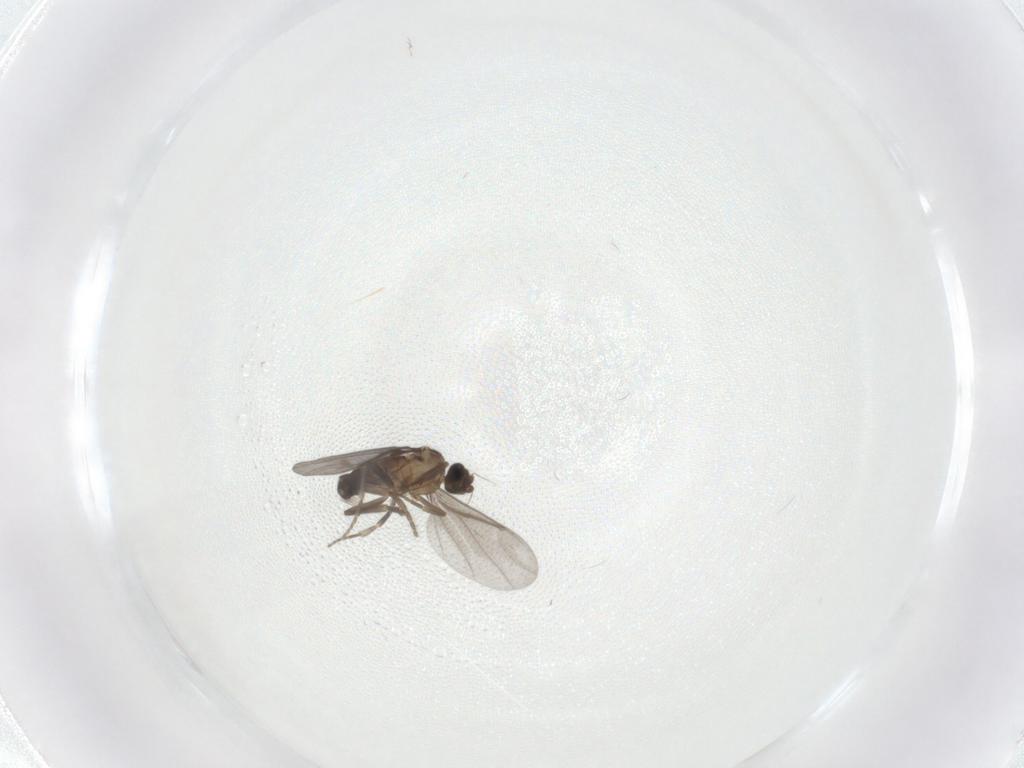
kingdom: Animalia
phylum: Arthropoda
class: Insecta
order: Diptera
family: Phoridae
